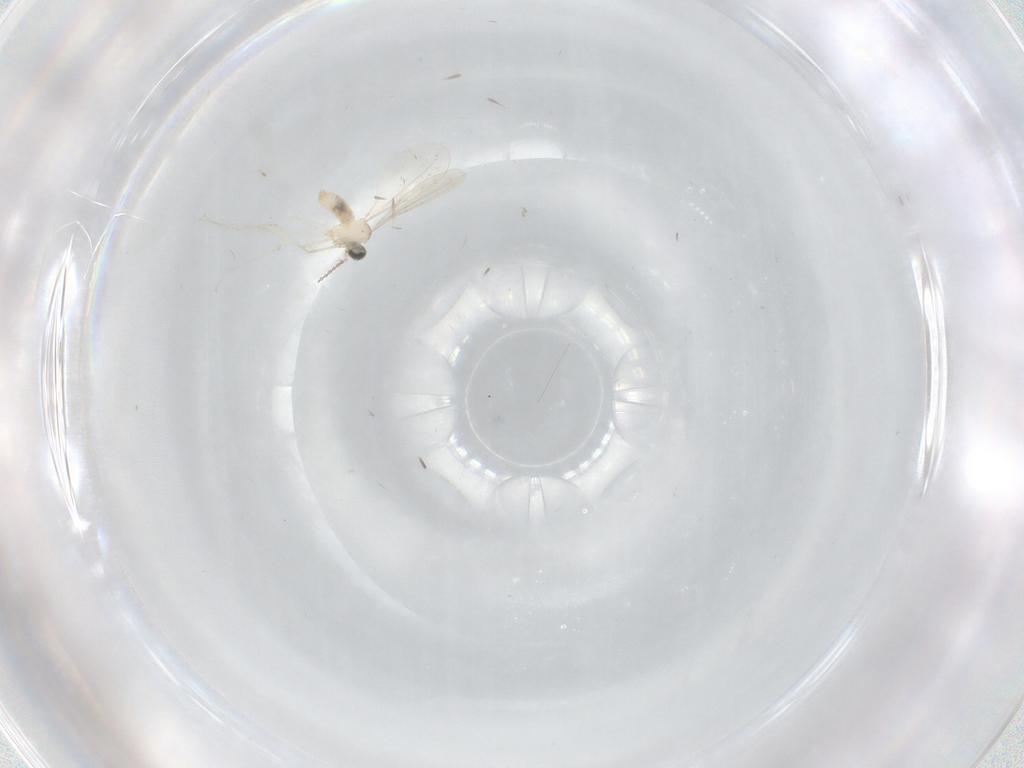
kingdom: Animalia
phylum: Arthropoda
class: Insecta
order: Diptera
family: Cecidomyiidae
